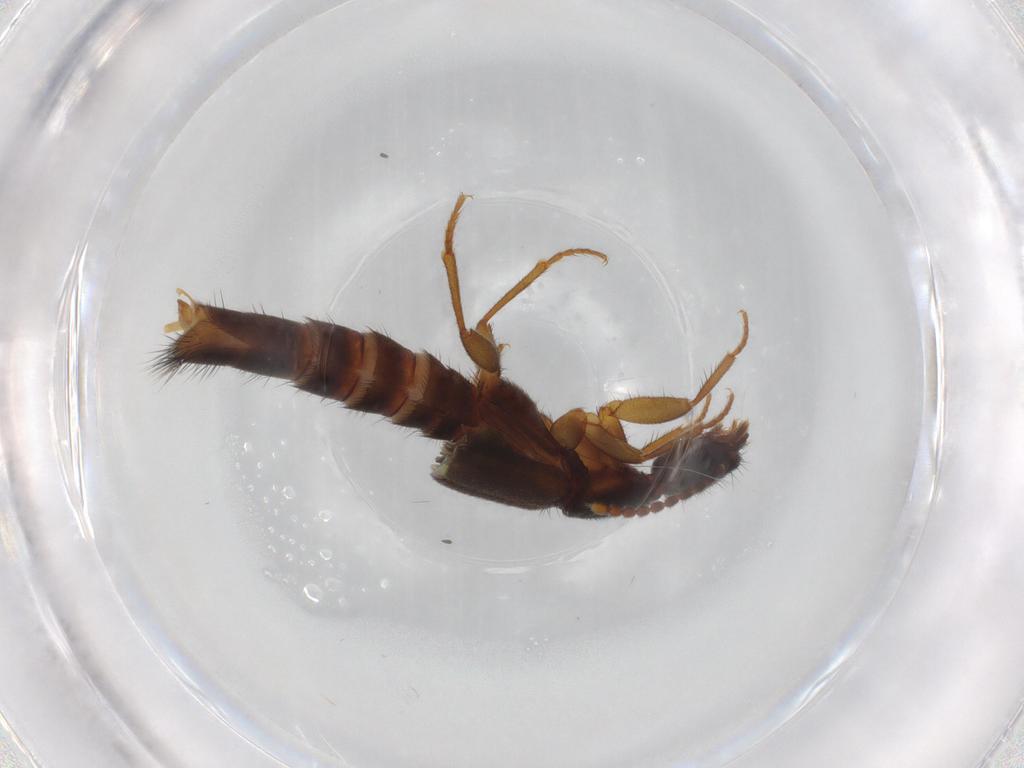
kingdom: Animalia
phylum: Arthropoda
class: Insecta
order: Coleoptera
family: Staphylinidae
